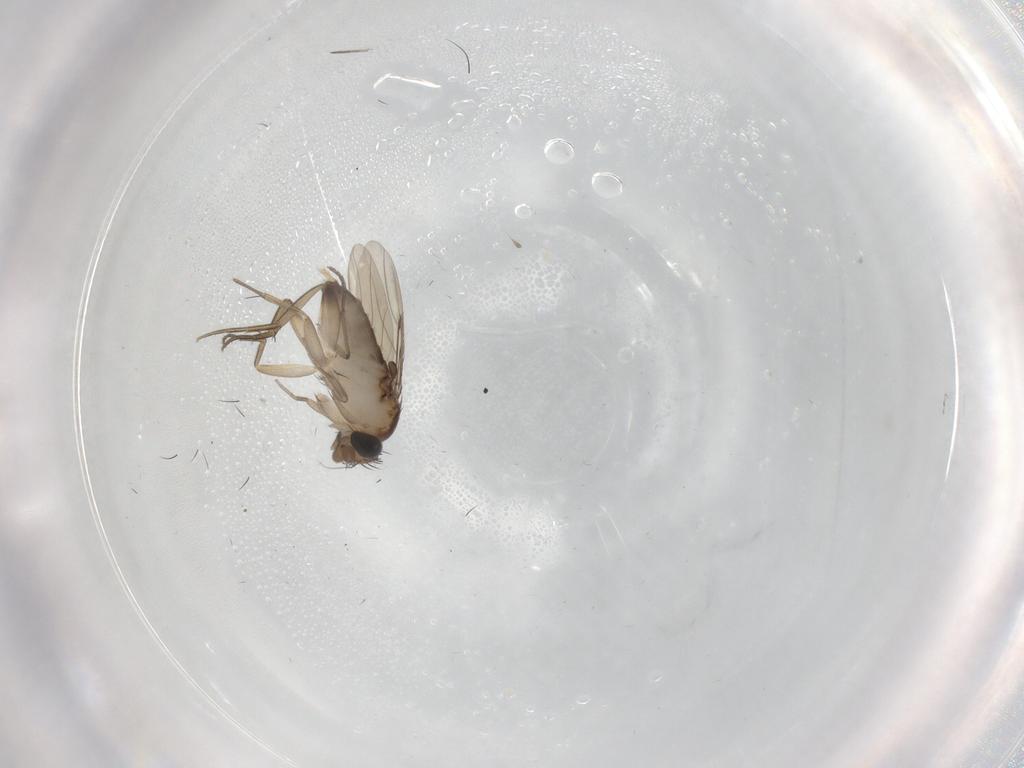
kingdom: Animalia
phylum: Arthropoda
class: Insecta
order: Diptera
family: Phoridae
